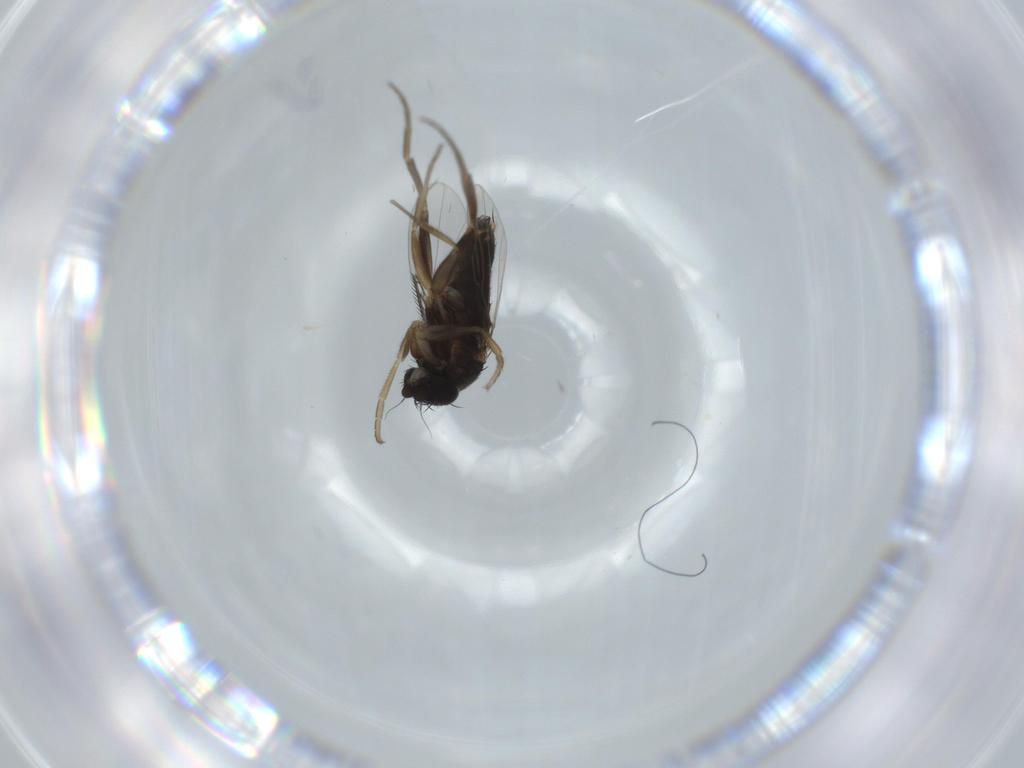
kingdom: Animalia
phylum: Arthropoda
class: Insecta
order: Diptera
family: Phoridae
